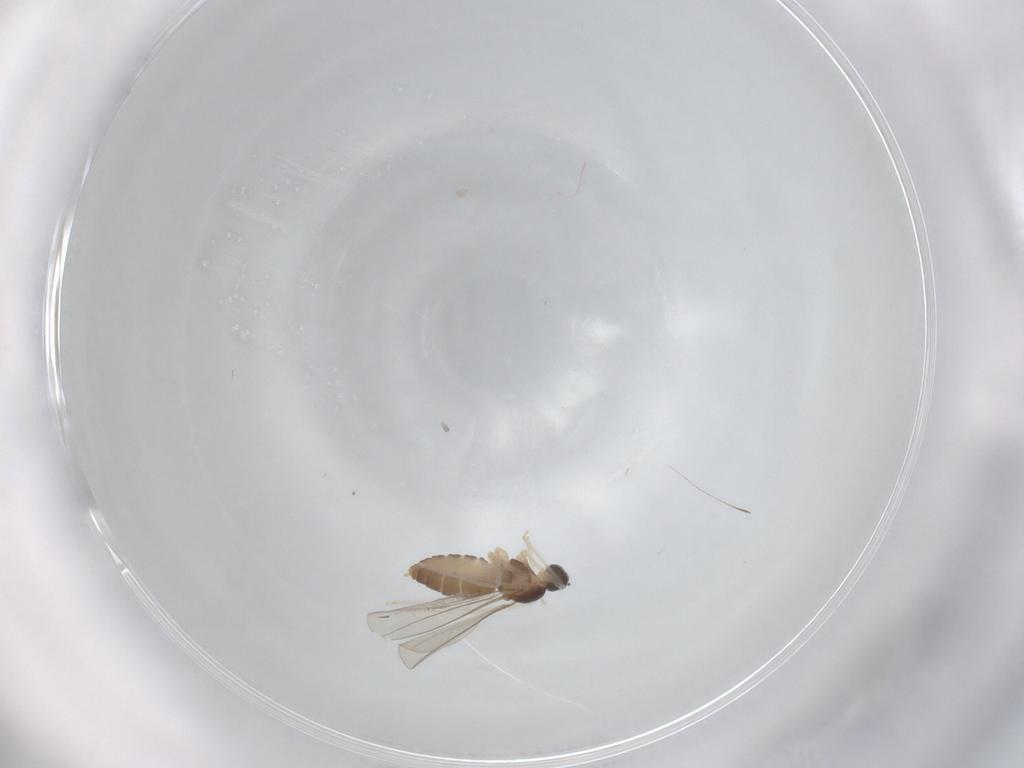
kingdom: Animalia
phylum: Arthropoda
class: Insecta
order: Diptera
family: Cecidomyiidae
